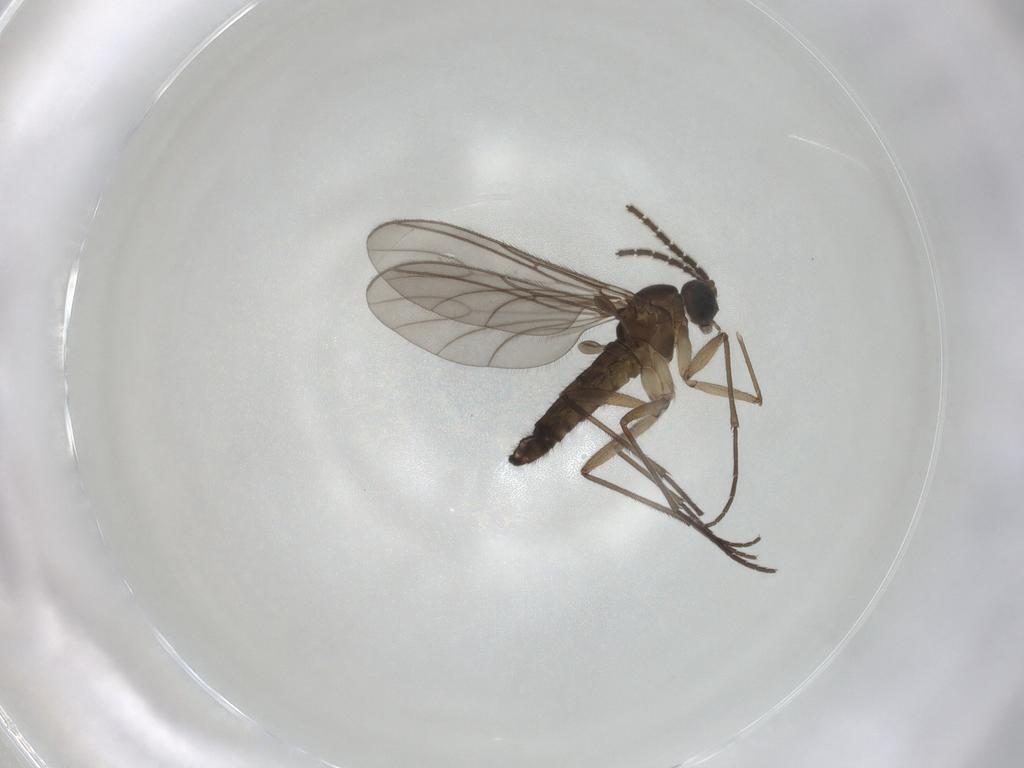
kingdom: Animalia
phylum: Arthropoda
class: Insecta
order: Diptera
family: Sciaridae
